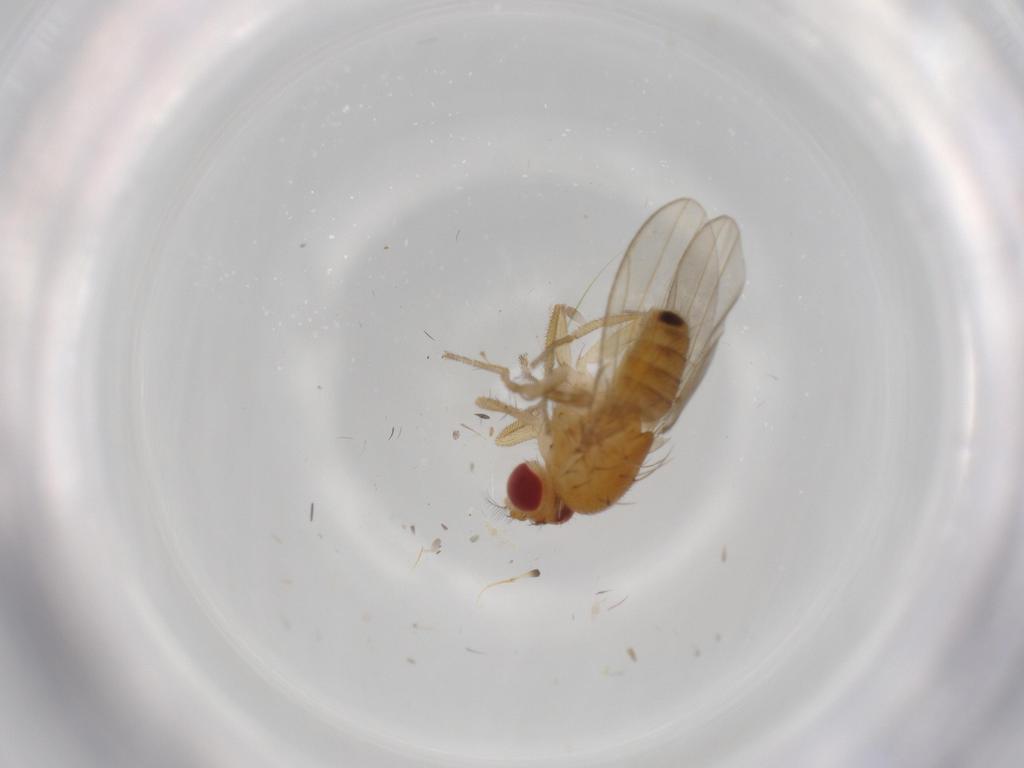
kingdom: Animalia
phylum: Arthropoda
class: Insecta
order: Diptera
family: Drosophilidae
